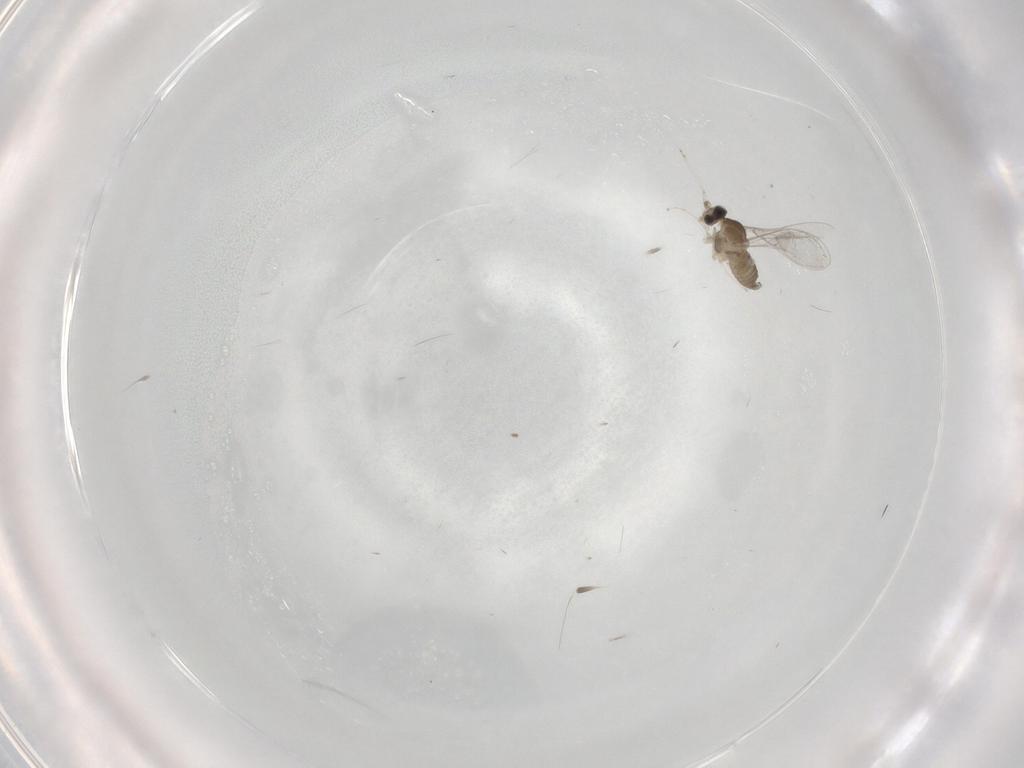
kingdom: Animalia
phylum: Arthropoda
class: Insecta
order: Diptera
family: Cecidomyiidae
